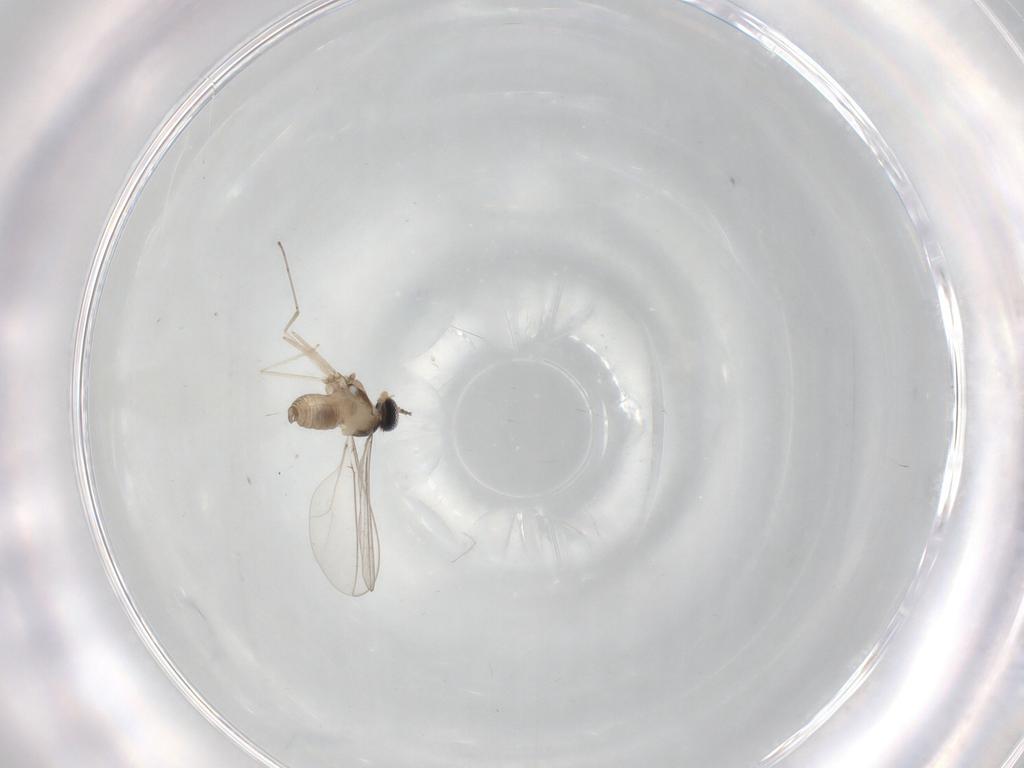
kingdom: Animalia
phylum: Arthropoda
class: Insecta
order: Diptera
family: Cecidomyiidae
